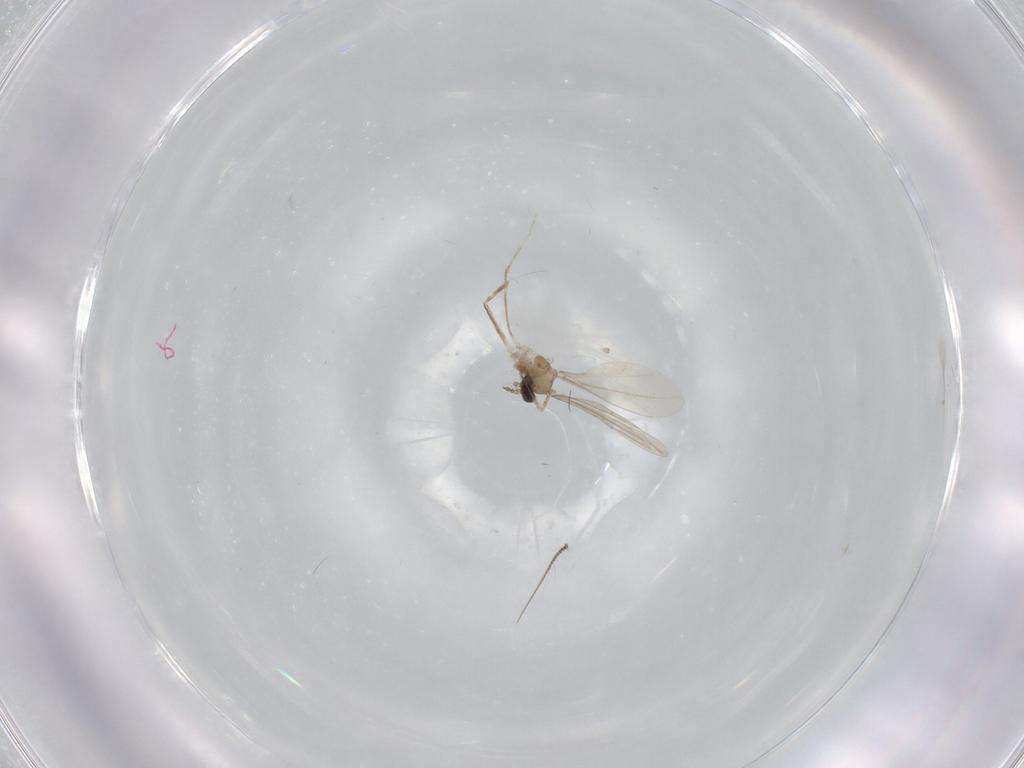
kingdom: Animalia
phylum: Arthropoda
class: Insecta
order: Diptera
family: Cecidomyiidae
